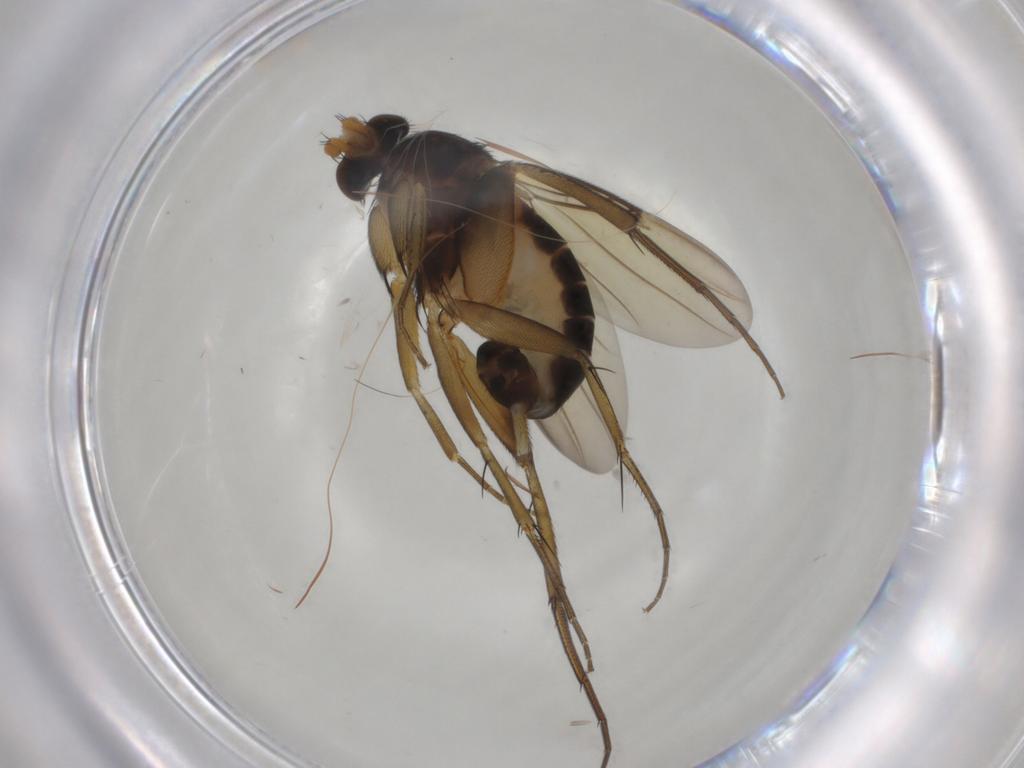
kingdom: Animalia
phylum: Arthropoda
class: Insecta
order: Diptera
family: Phoridae
